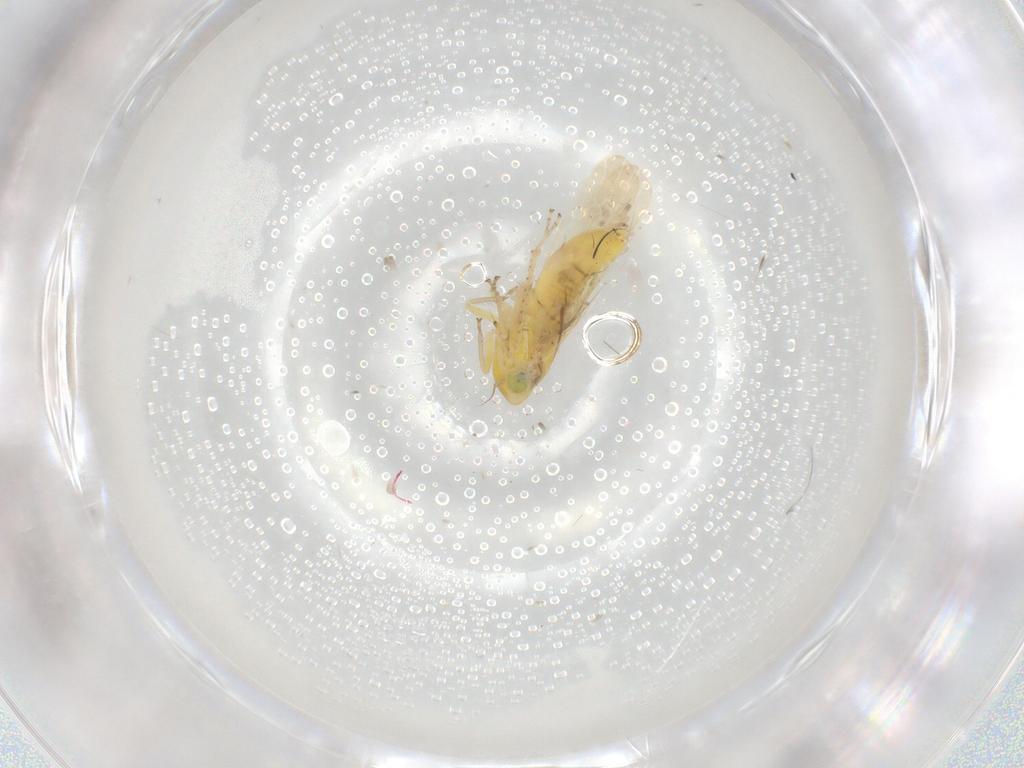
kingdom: Animalia
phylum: Arthropoda
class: Insecta
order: Hemiptera
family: Cicadellidae
